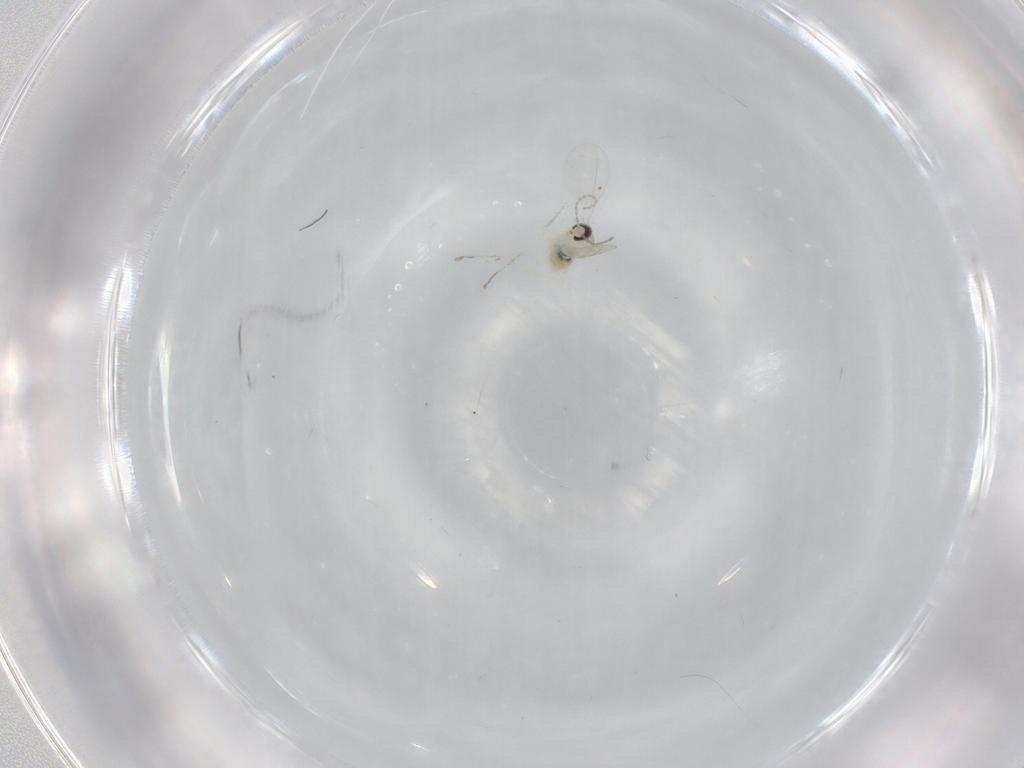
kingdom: Animalia
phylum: Arthropoda
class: Insecta
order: Diptera
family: Cecidomyiidae
